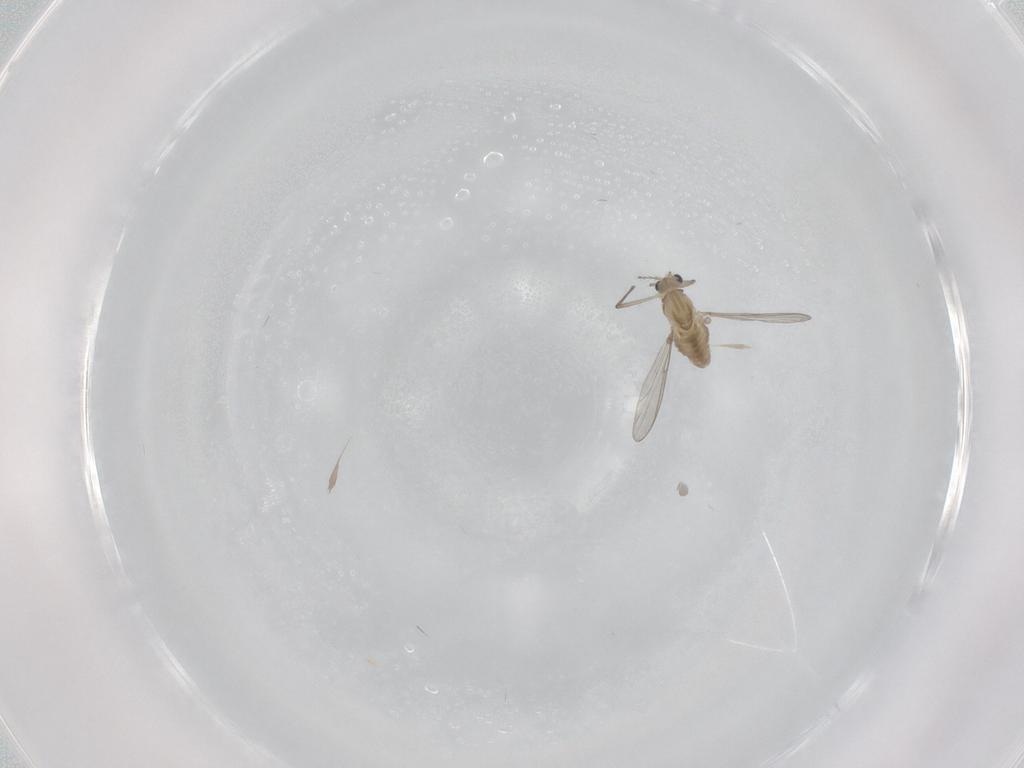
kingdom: Animalia
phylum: Arthropoda
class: Insecta
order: Diptera
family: Chironomidae
